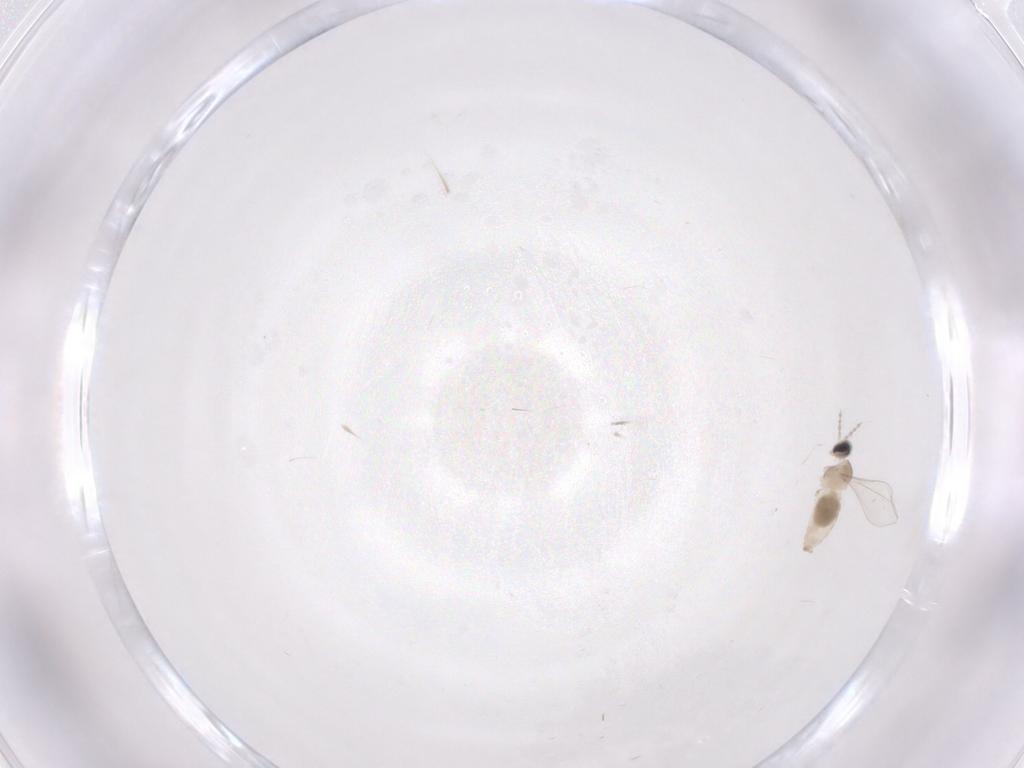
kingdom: Animalia
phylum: Arthropoda
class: Insecta
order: Diptera
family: Cecidomyiidae
